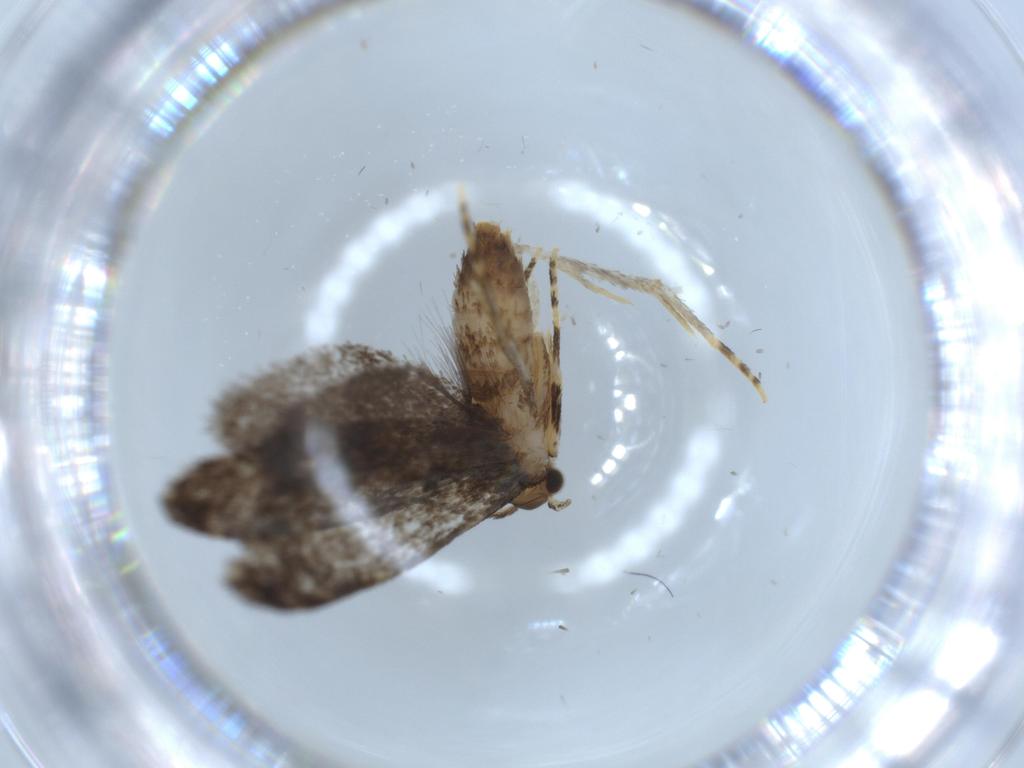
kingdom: Animalia
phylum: Arthropoda
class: Insecta
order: Lepidoptera
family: Tineidae
